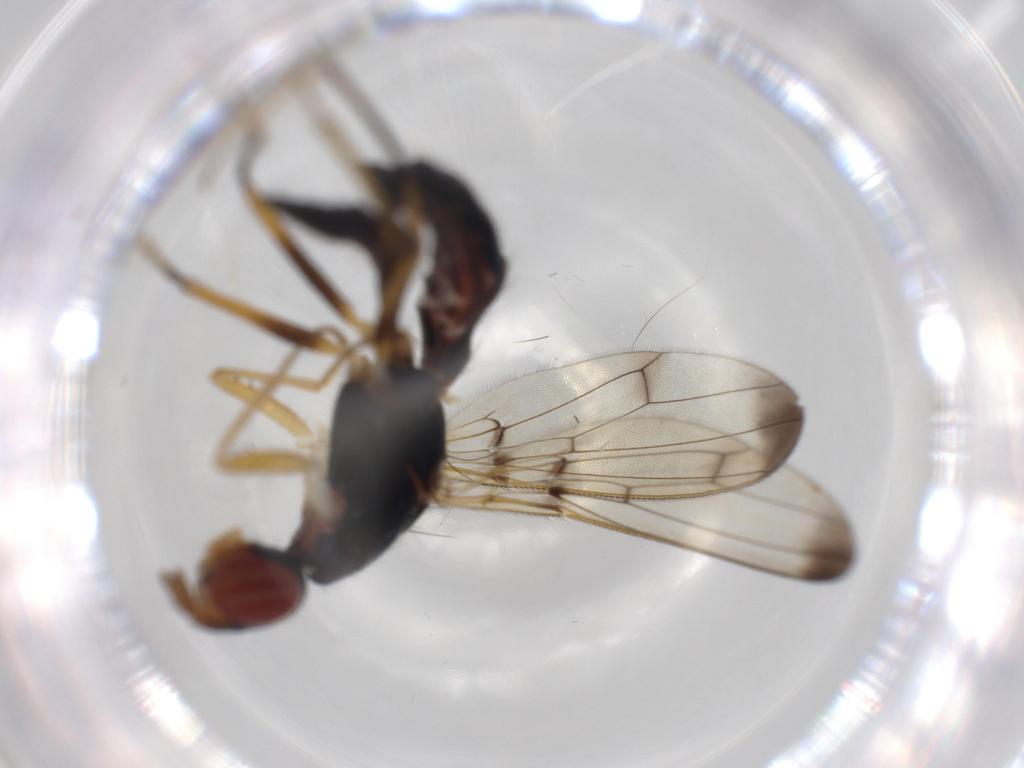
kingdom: Animalia
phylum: Arthropoda
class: Insecta
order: Diptera
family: Cecidomyiidae
